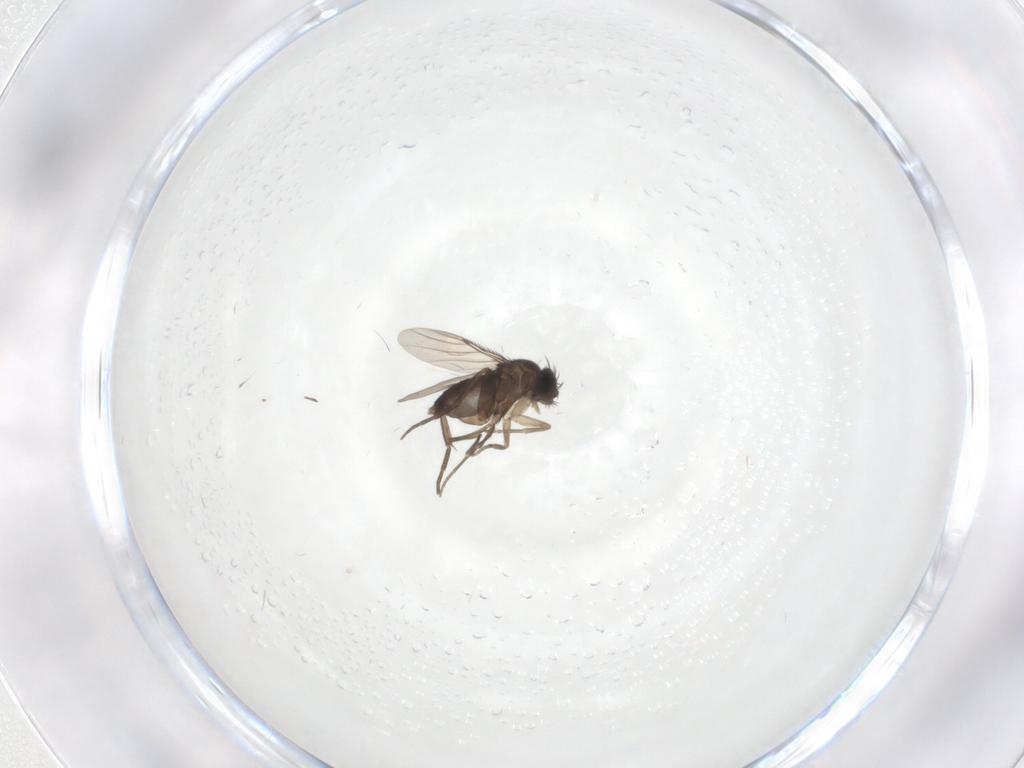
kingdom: Animalia
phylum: Arthropoda
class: Insecta
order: Diptera
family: Phoridae
